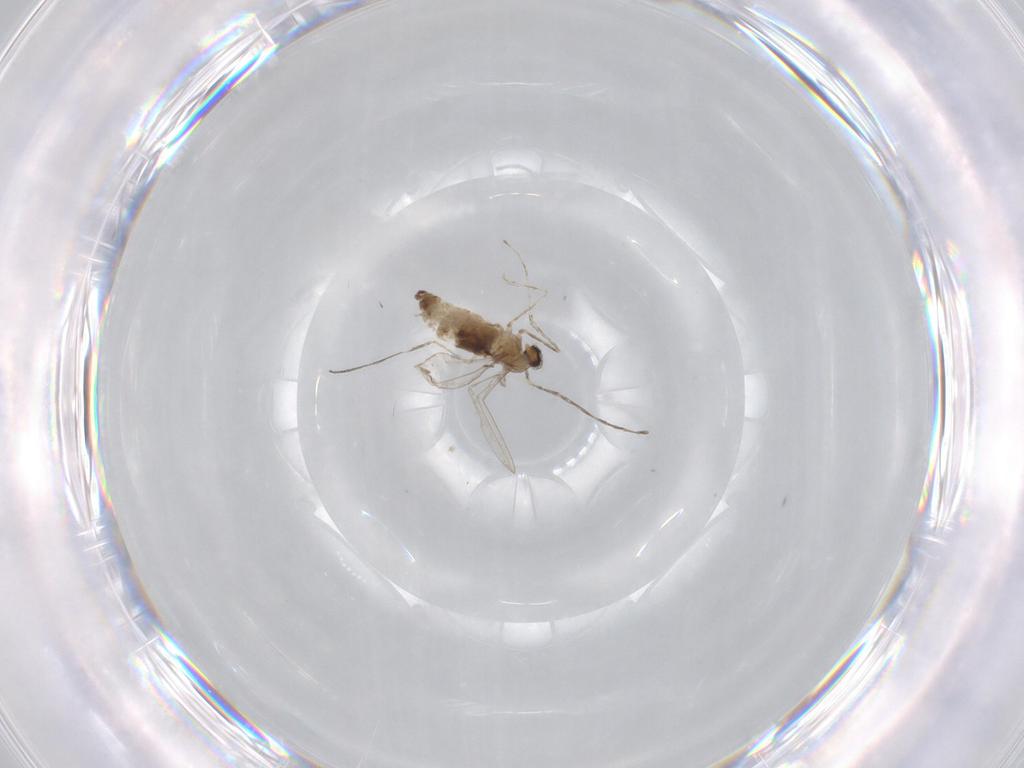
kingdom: Animalia
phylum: Arthropoda
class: Insecta
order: Diptera
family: Cecidomyiidae
